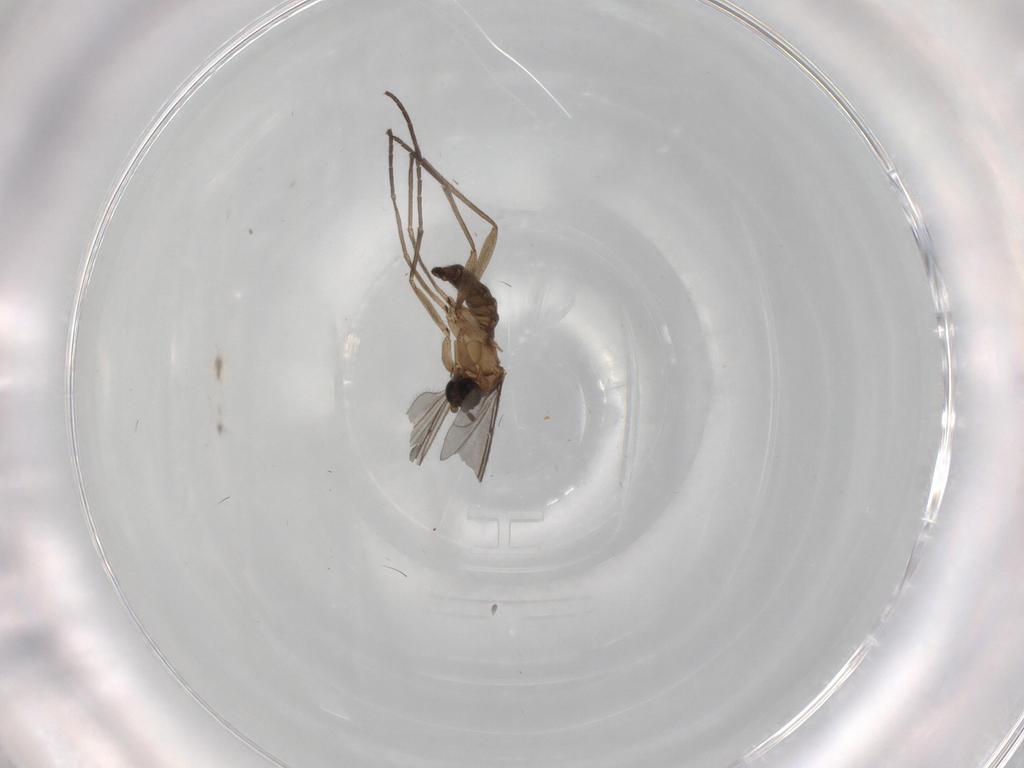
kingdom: Animalia
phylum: Arthropoda
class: Insecta
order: Diptera
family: Sciaridae
